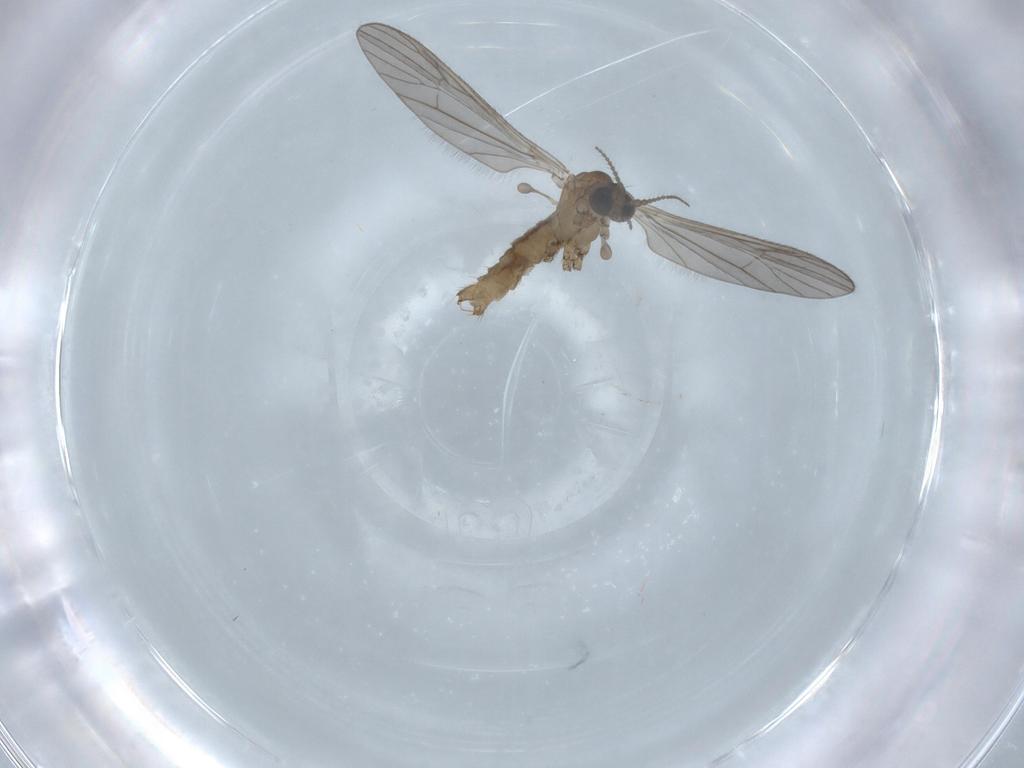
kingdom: Animalia
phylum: Arthropoda
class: Insecta
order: Diptera
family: Limoniidae
